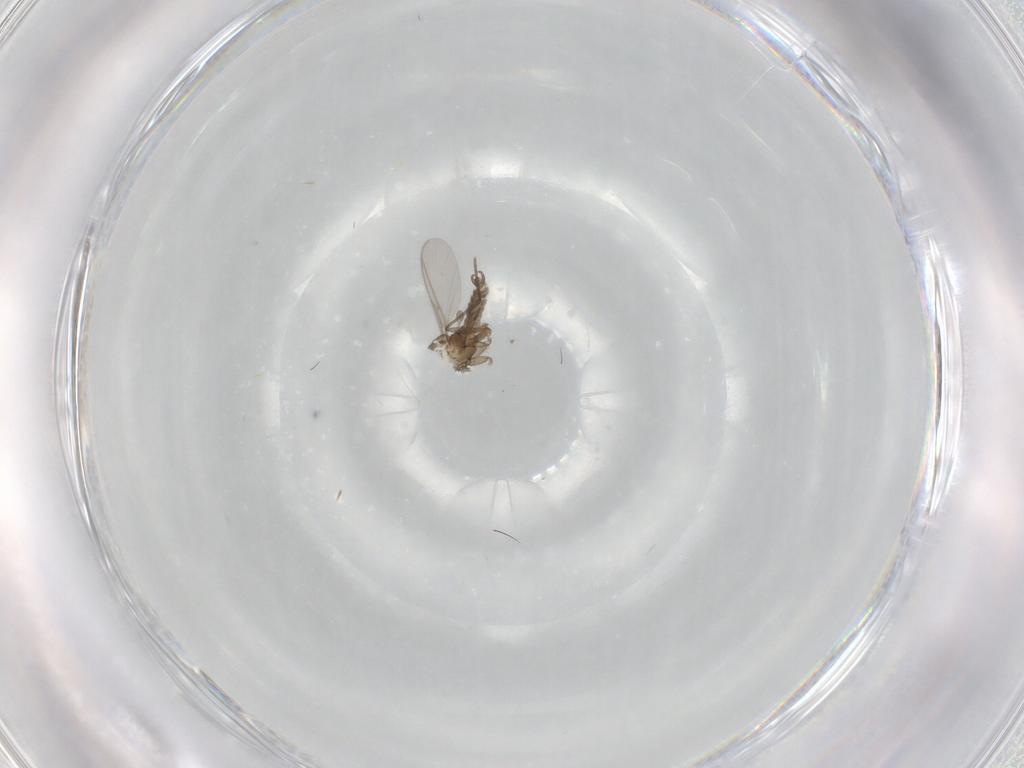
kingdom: Animalia
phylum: Arthropoda
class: Insecta
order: Diptera
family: Sciaridae
